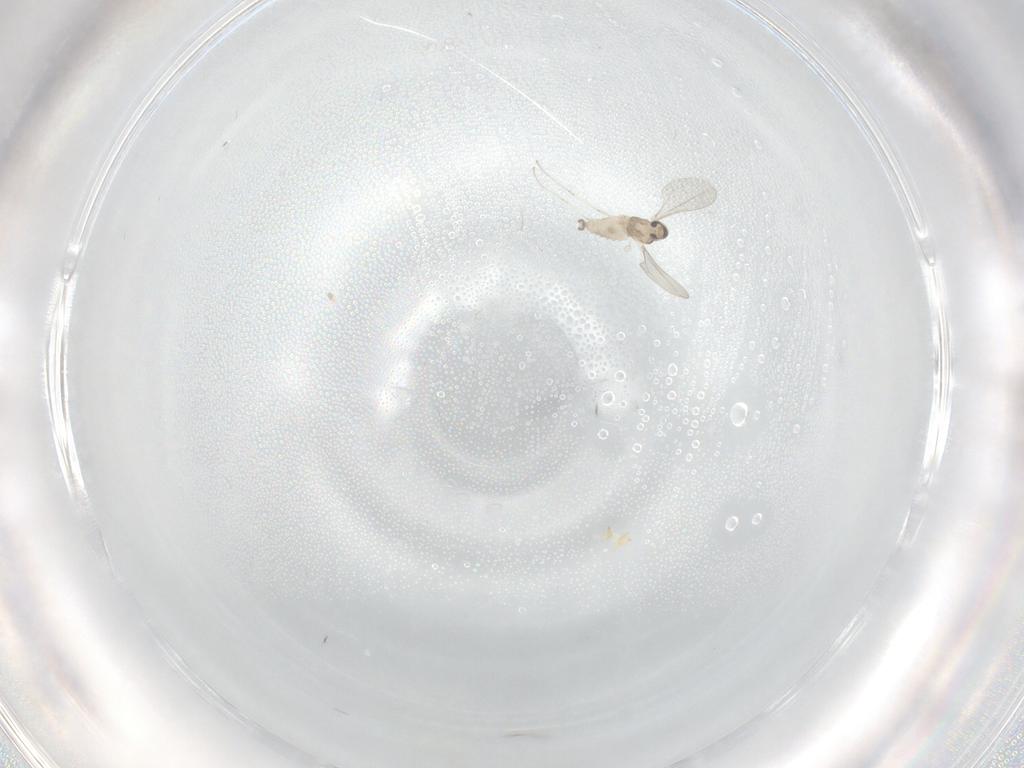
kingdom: Animalia
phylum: Arthropoda
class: Insecta
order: Diptera
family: Cecidomyiidae
